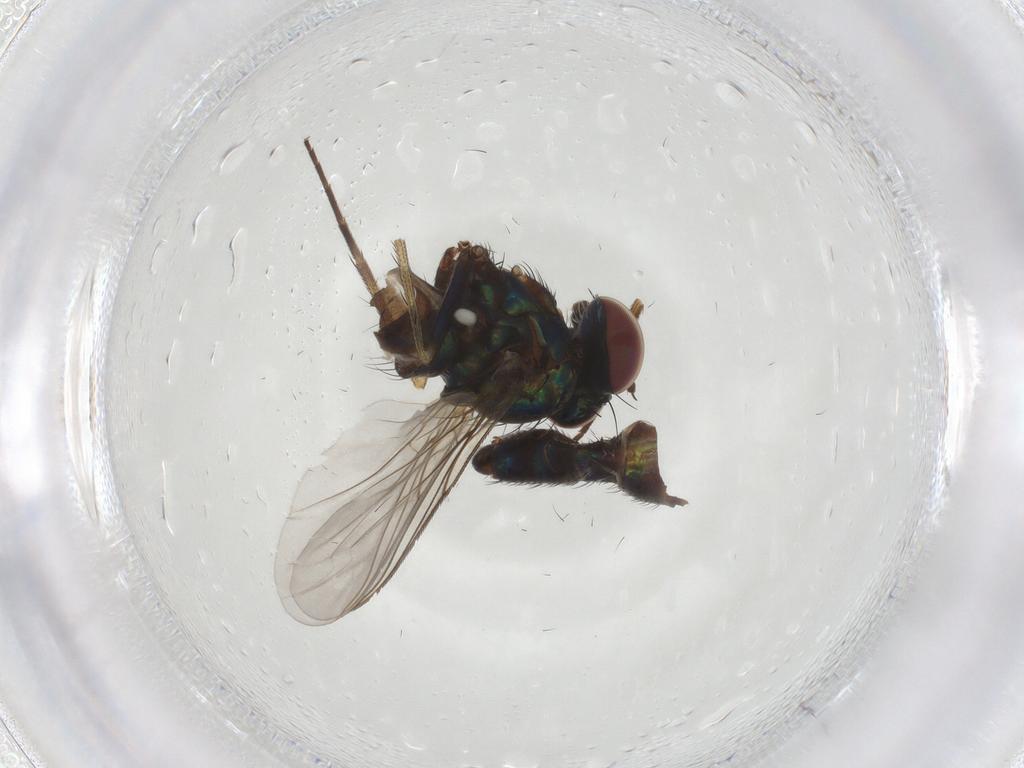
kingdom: Animalia
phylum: Arthropoda
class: Insecta
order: Diptera
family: Dolichopodidae
